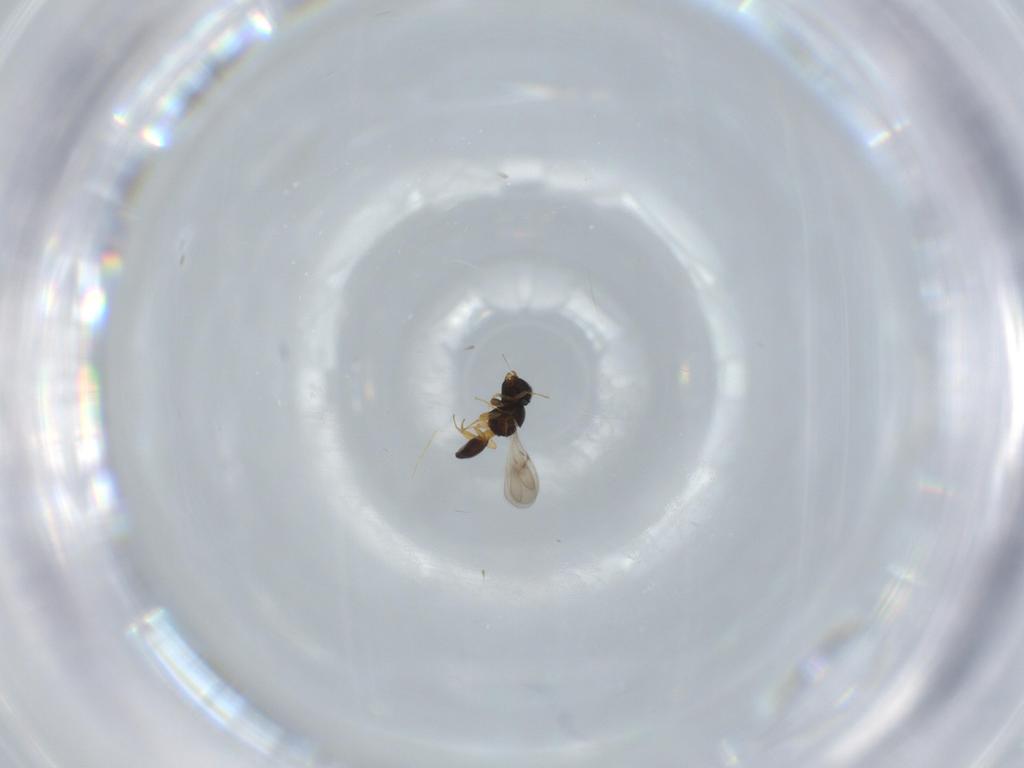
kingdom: Animalia
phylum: Arthropoda
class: Insecta
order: Hymenoptera
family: Scelionidae
